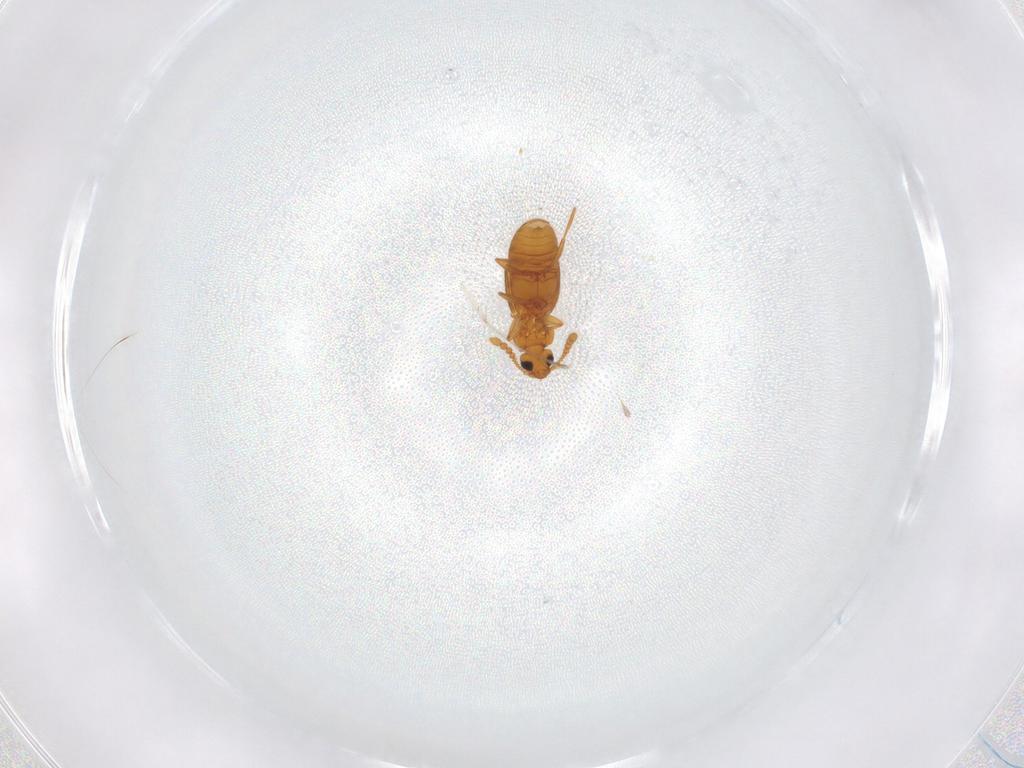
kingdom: Animalia
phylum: Arthropoda
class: Insecta
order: Coleoptera
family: Staphylinidae
